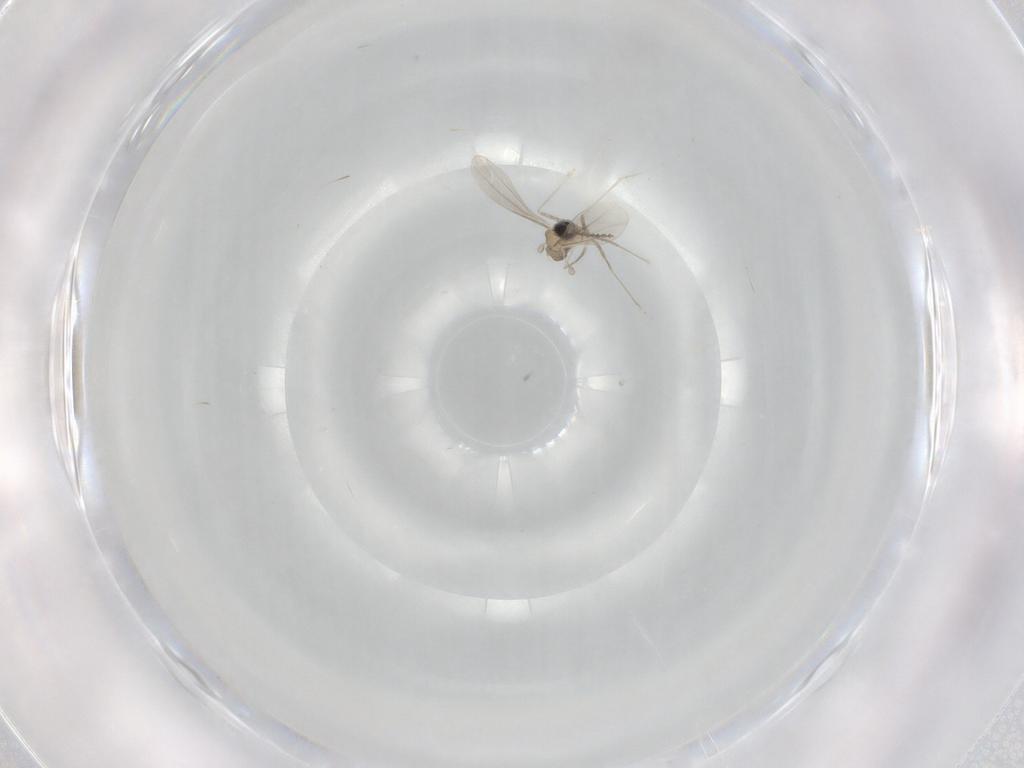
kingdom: Animalia
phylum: Arthropoda
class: Insecta
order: Diptera
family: Cecidomyiidae
